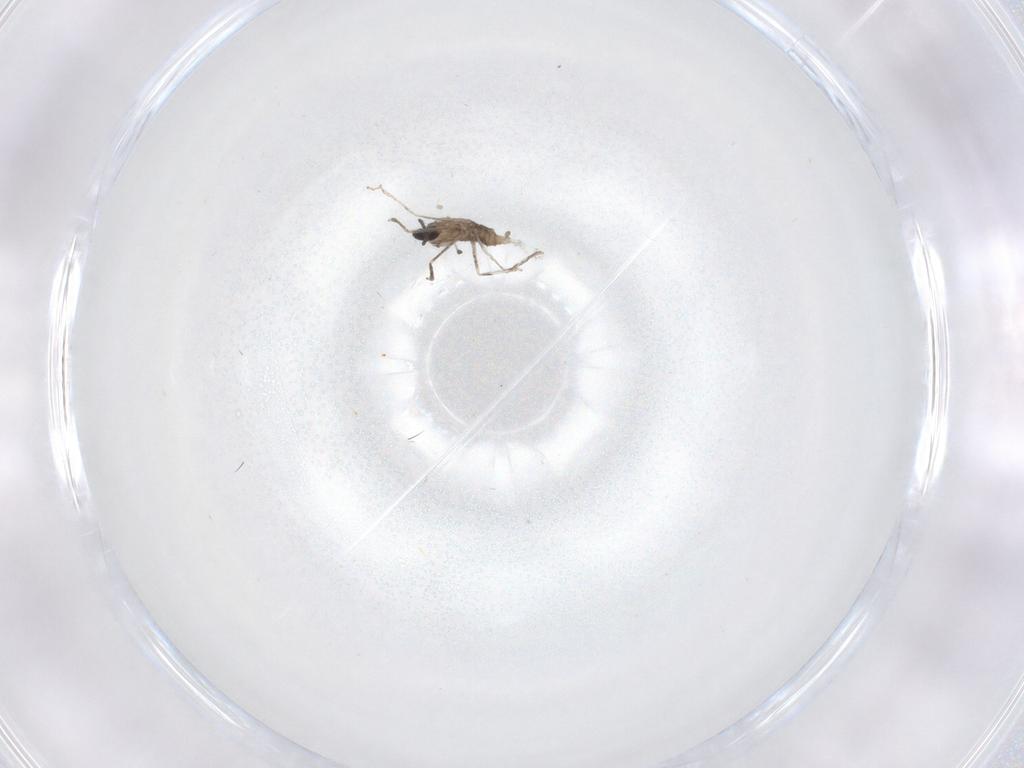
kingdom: Animalia
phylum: Arthropoda
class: Insecta
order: Diptera
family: Cecidomyiidae
